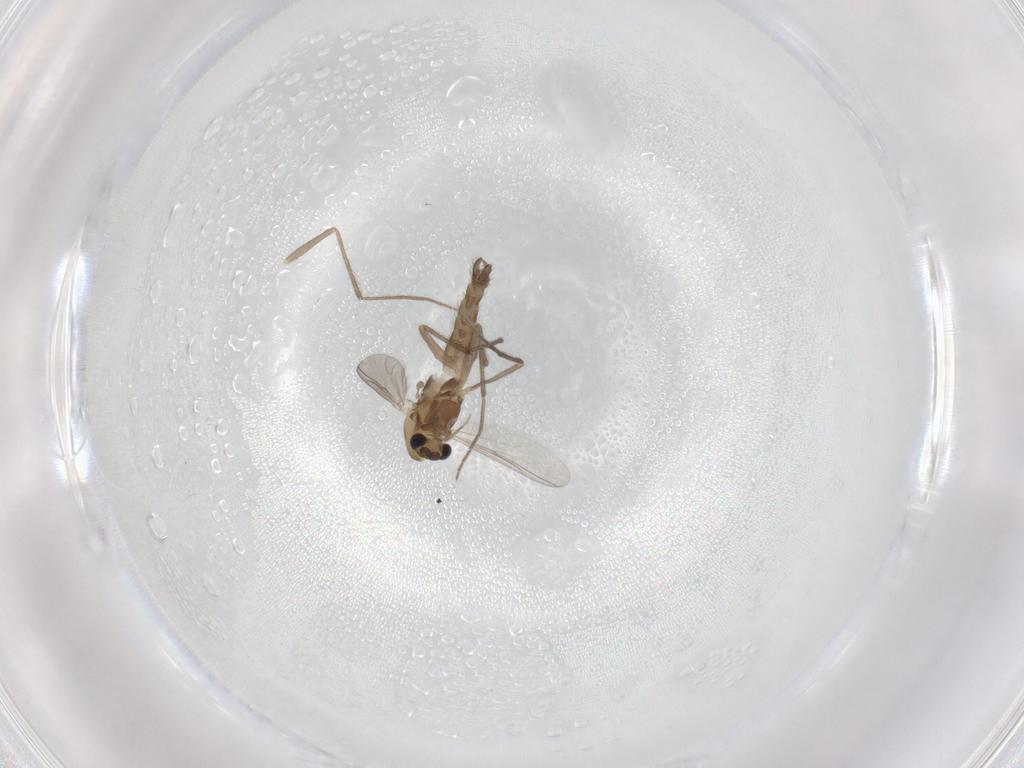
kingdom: Animalia
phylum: Arthropoda
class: Insecta
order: Diptera
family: Chironomidae
